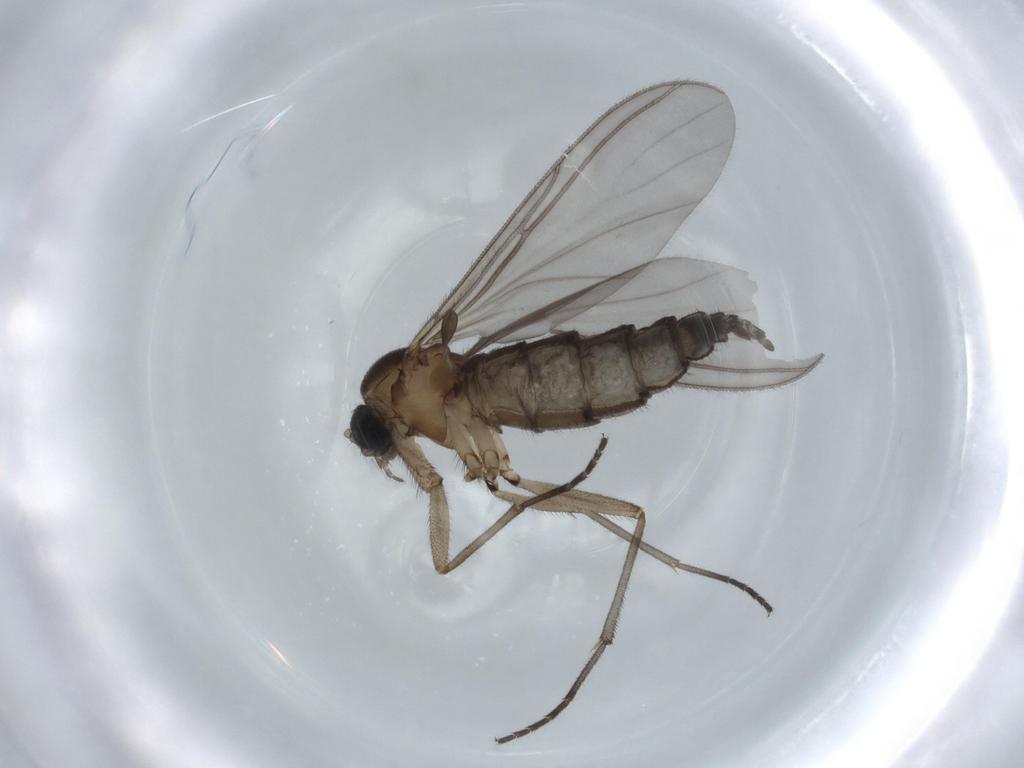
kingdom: Animalia
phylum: Arthropoda
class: Insecta
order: Diptera
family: Sciaridae
